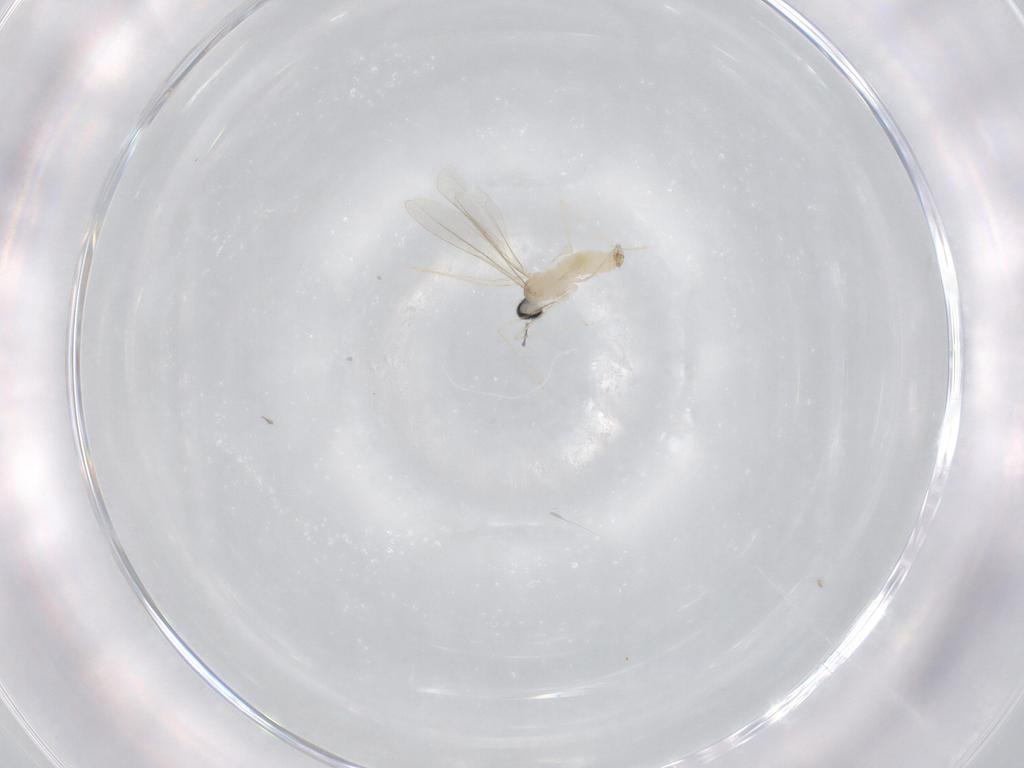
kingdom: Animalia
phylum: Arthropoda
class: Insecta
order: Diptera
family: Cecidomyiidae
